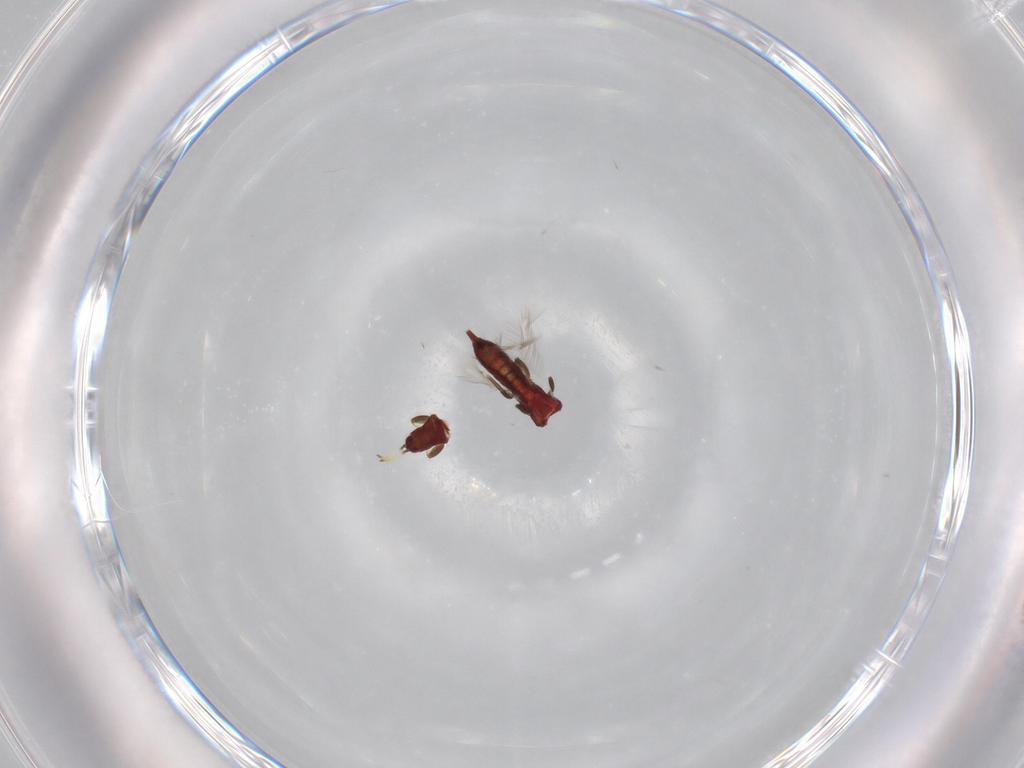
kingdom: Animalia
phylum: Arthropoda
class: Insecta
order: Thysanoptera
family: Phlaeothripidae
